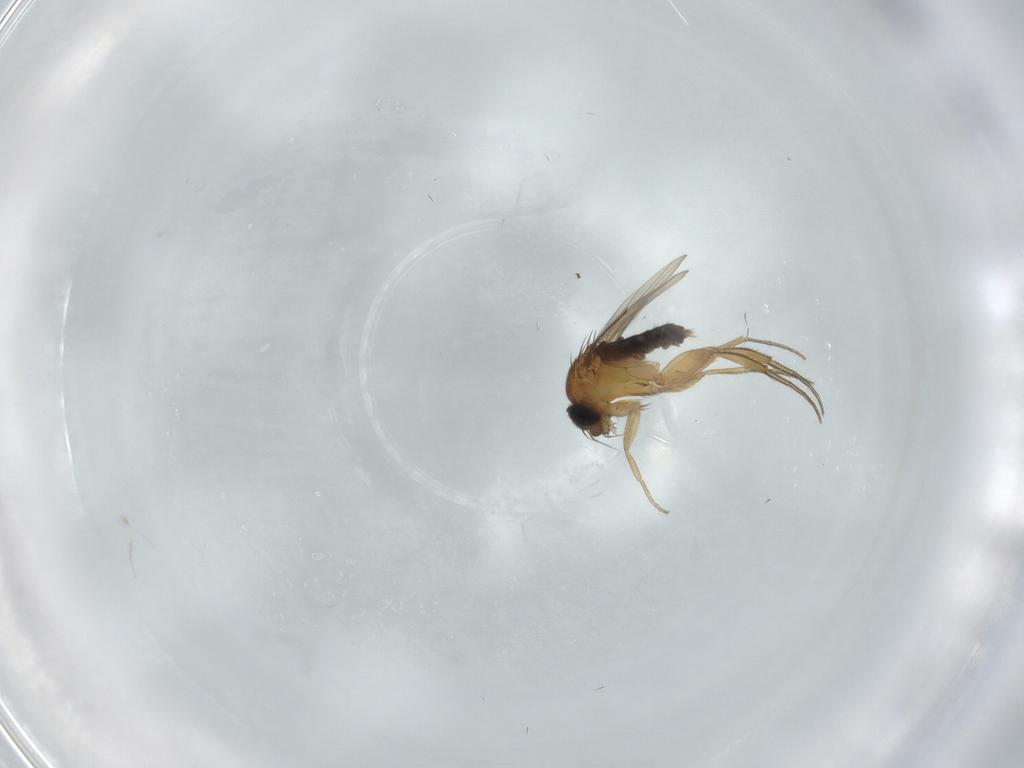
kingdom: Animalia
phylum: Arthropoda
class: Insecta
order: Diptera
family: Phoridae
